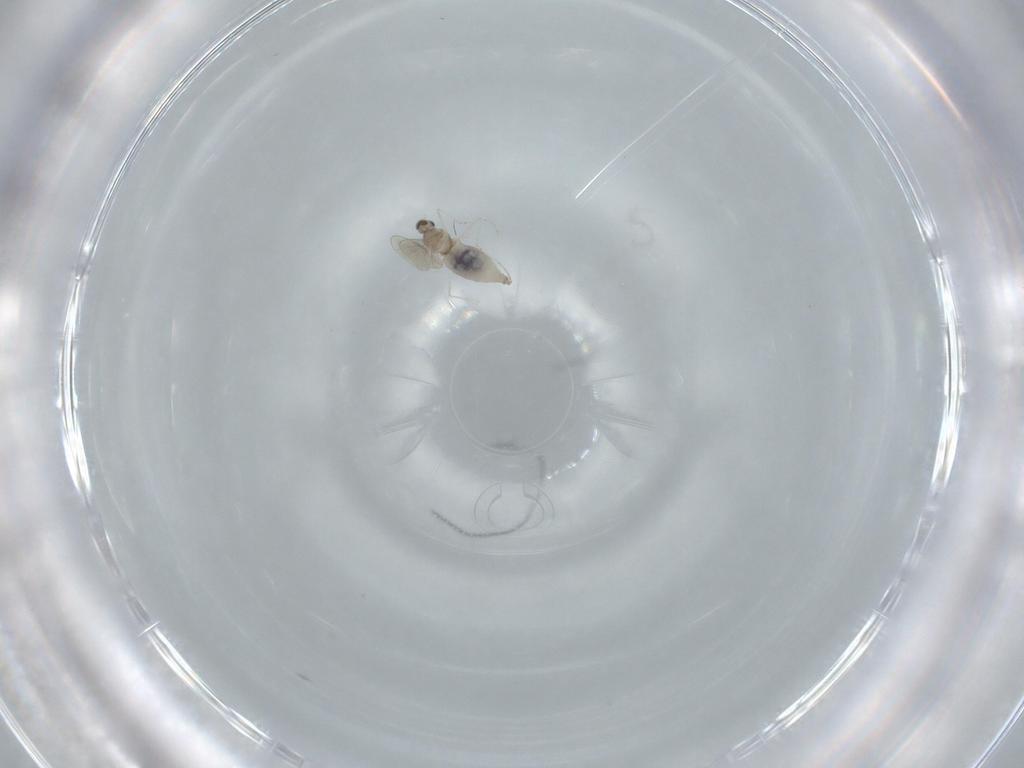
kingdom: Animalia
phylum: Arthropoda
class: Insecta
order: Diptera
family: Cecidomyiidae
